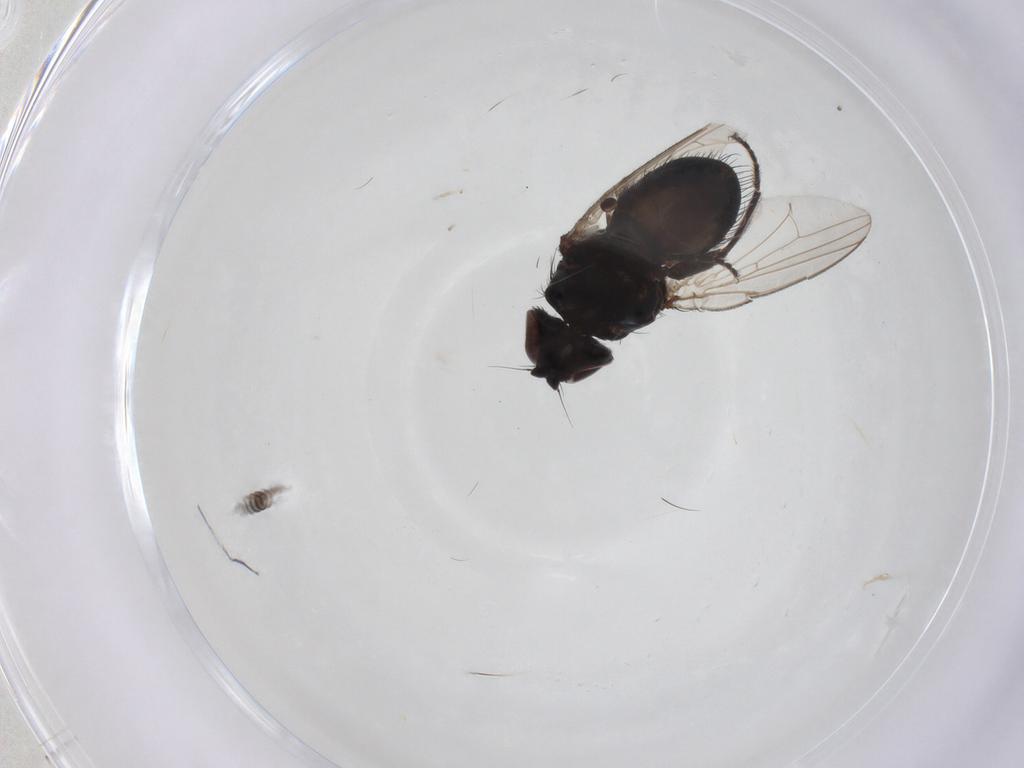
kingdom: Animalia
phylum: Arthropoda
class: Insecta
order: Diptera
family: Chloropidae
